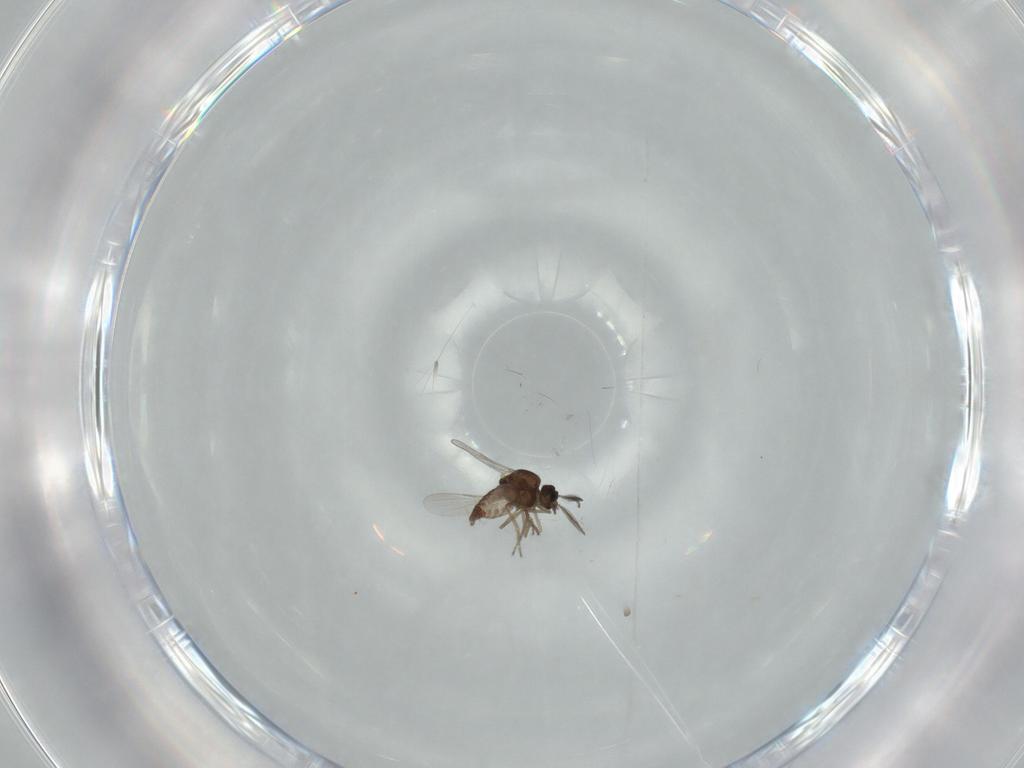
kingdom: Animalia
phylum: Arthropoda
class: Insecta
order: Diptera
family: Ceratopogonidae
